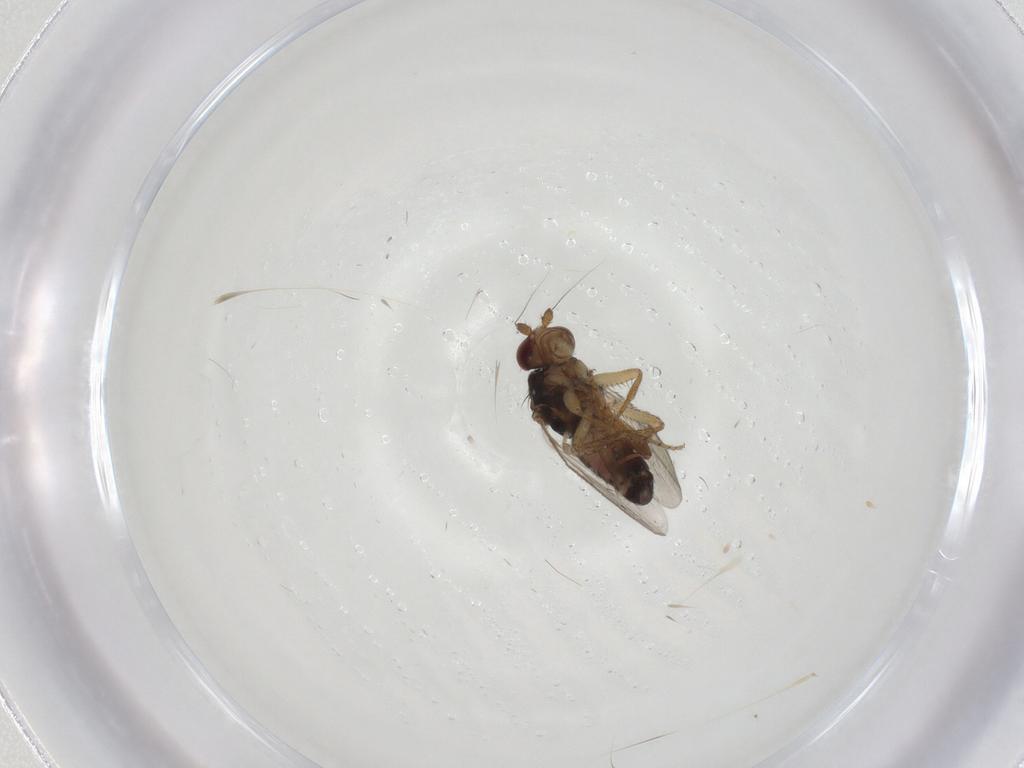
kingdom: Animalia
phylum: Arthropoda
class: Insecta
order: Diptera
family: Sphaeroceridae
